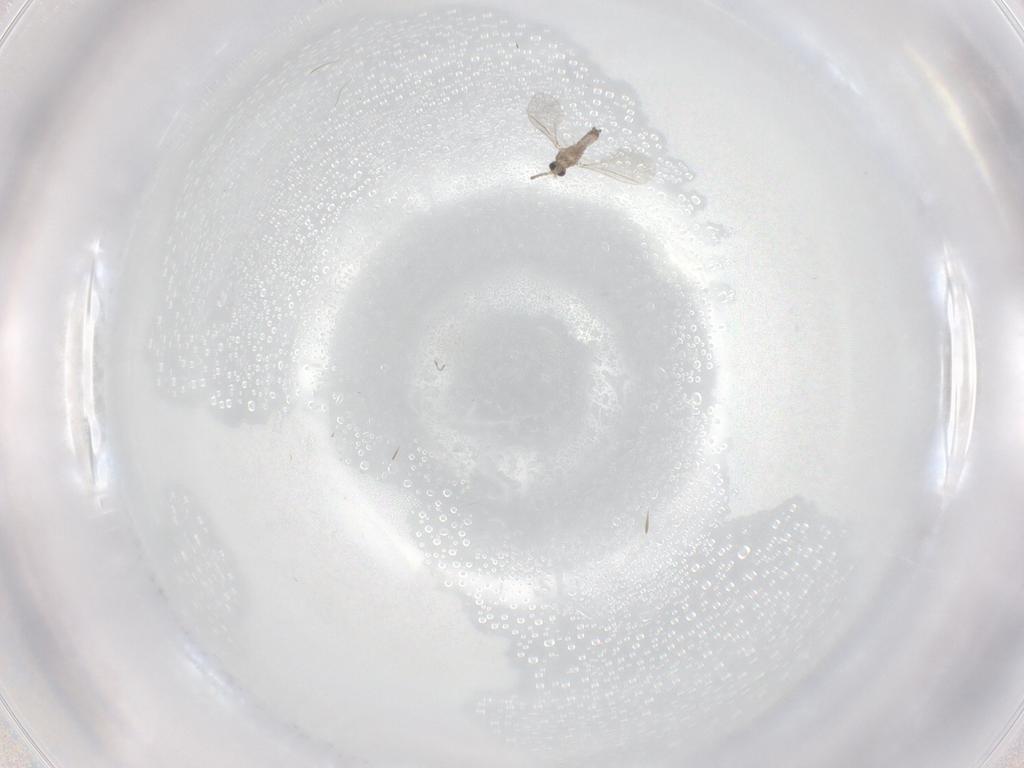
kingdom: Animalia
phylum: Arthropoda
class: Insecta
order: Diptera
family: Cecidomyiidae
